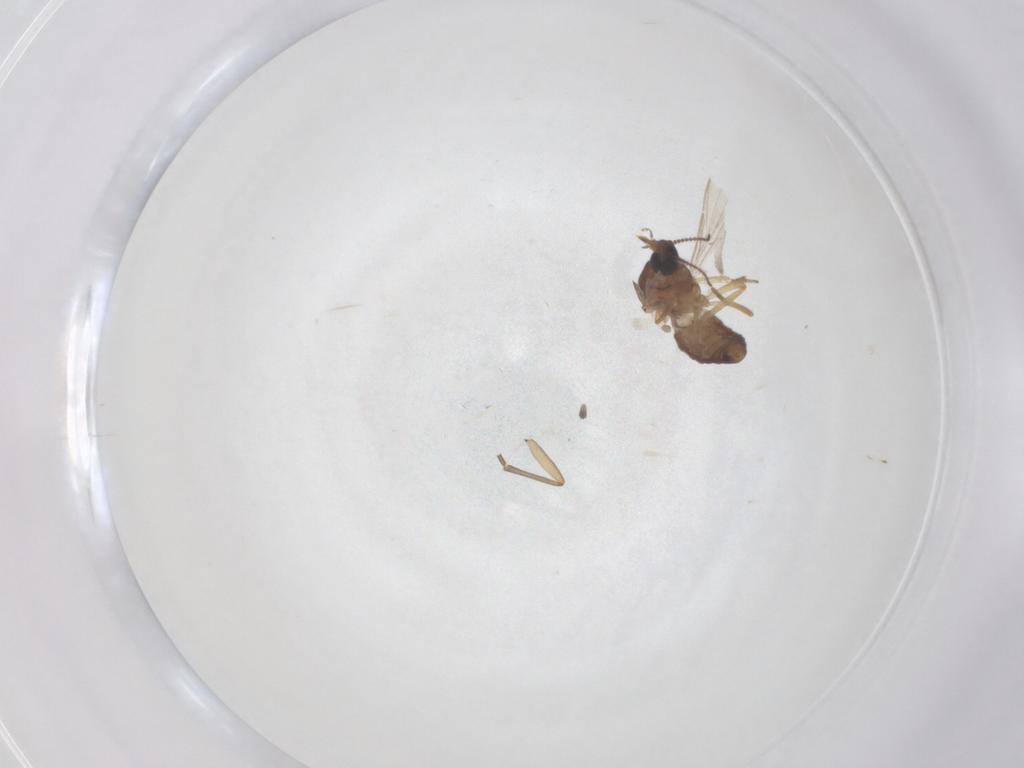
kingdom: Animalia
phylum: Arthropoda
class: Insecta
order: Diptera
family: Sciaridae
